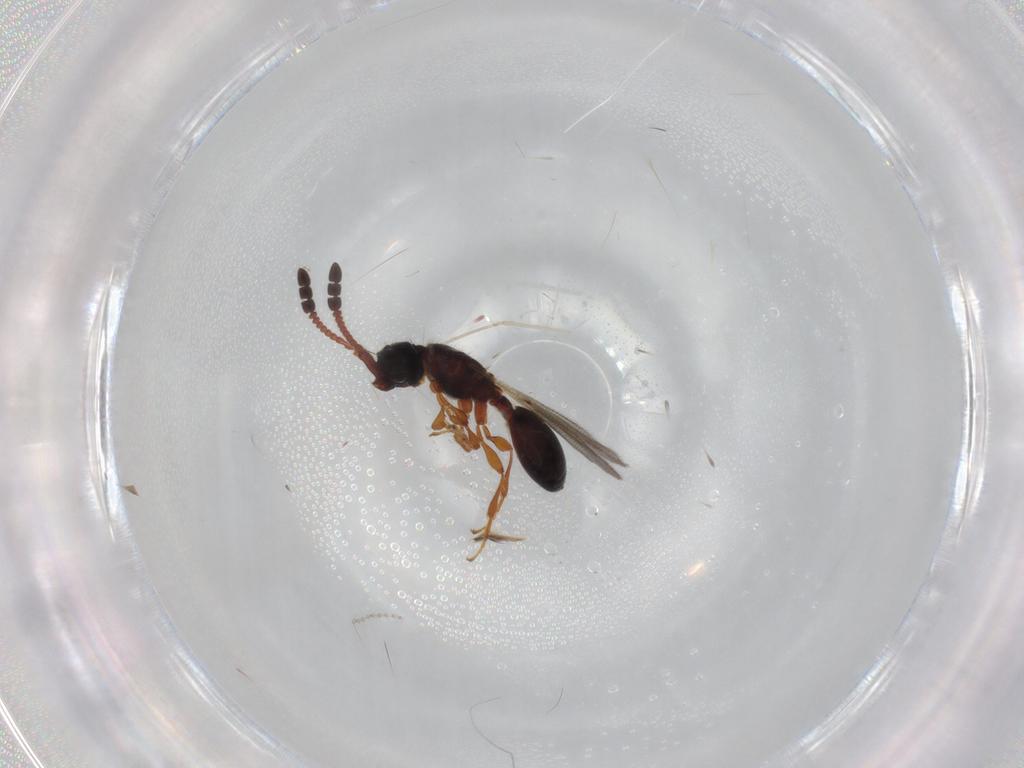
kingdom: Animalia
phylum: Arthropoda
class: Insecta
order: Hymenoptera
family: Diapriidae
